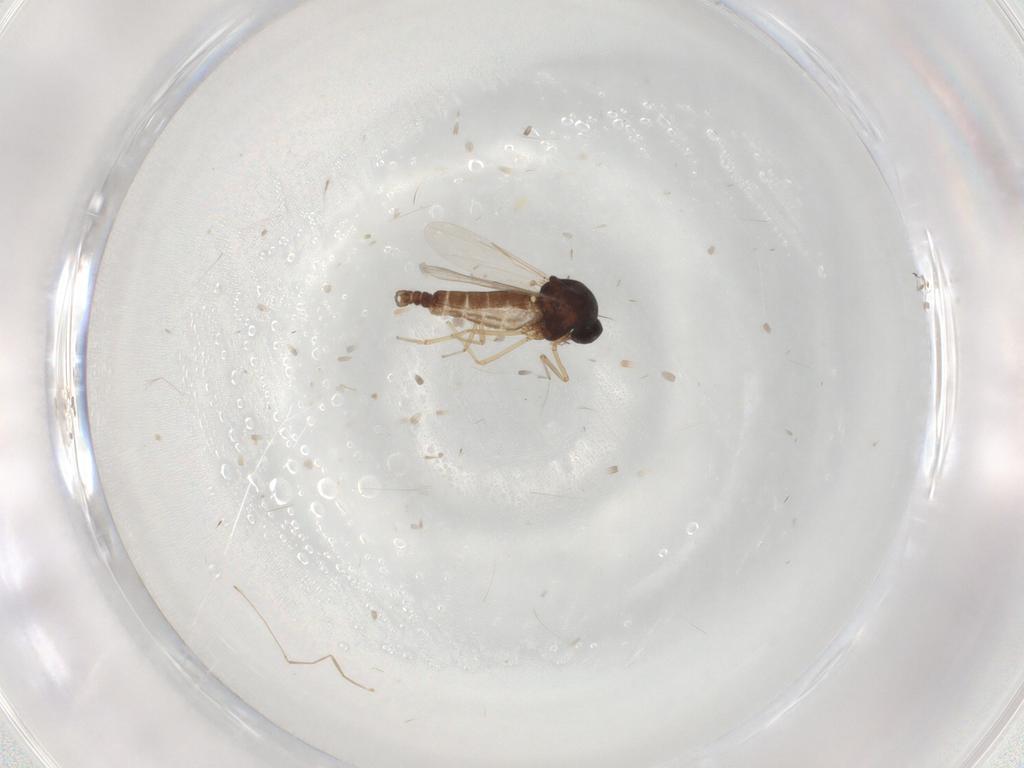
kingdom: Animalia
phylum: Arthropoda
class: Insecta
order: Diptera
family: Ceratopogonidae
